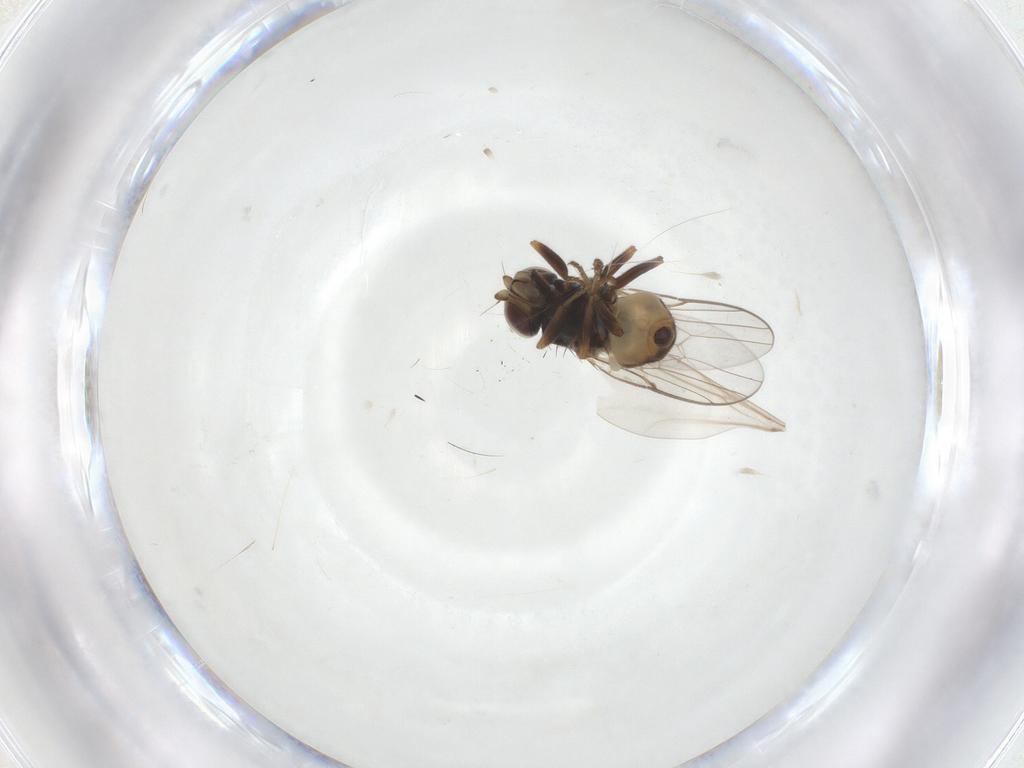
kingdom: Animalia
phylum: Arthropoda
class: Insecta
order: Diptera
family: Chloropidae
